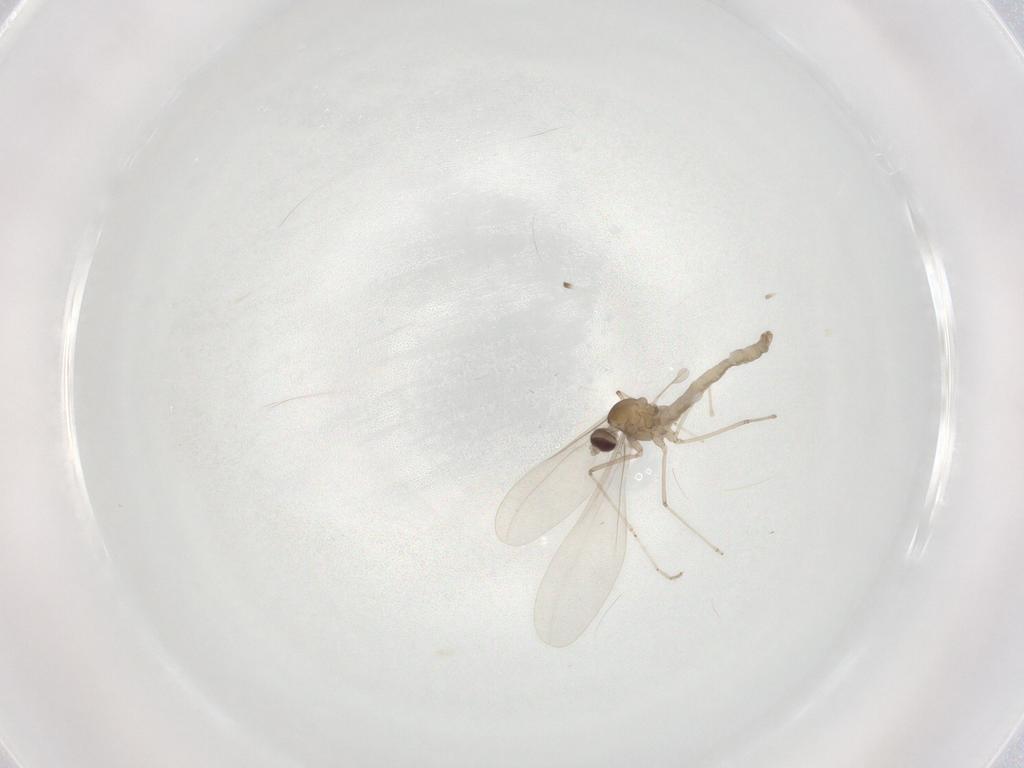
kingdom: Animalia
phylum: Arthropoda
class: Insecta
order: Diptera
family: Cecidomyiidae
